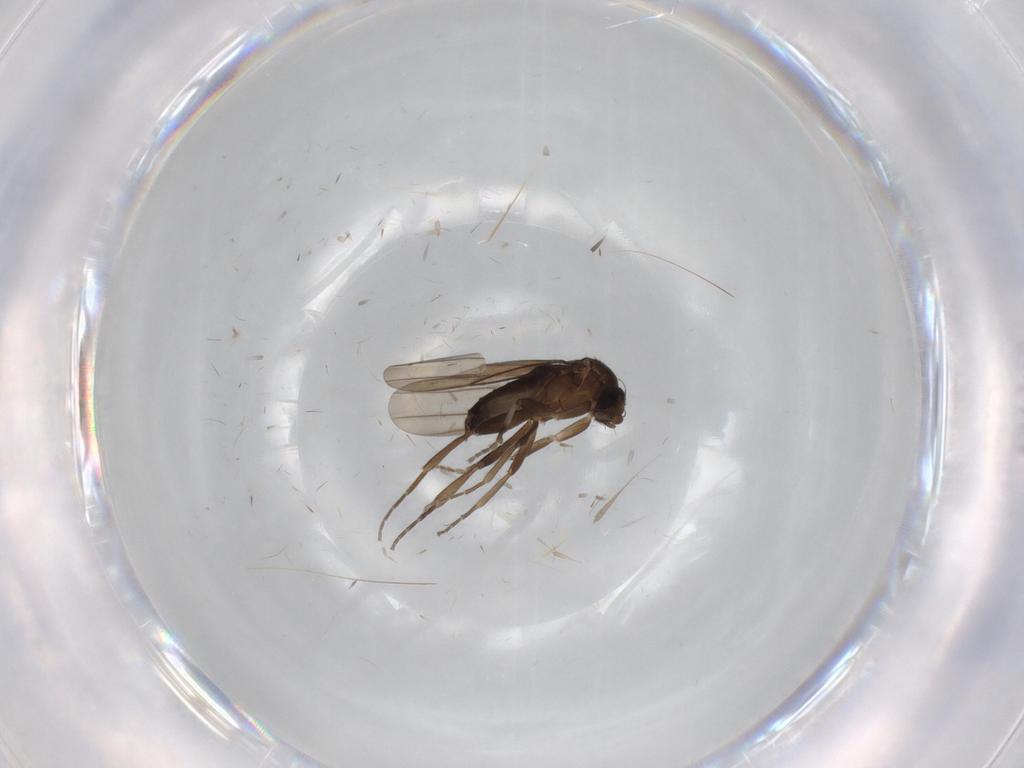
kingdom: Animalia
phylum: Arthropoda
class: Insecta
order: Diptera
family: Phoridae
